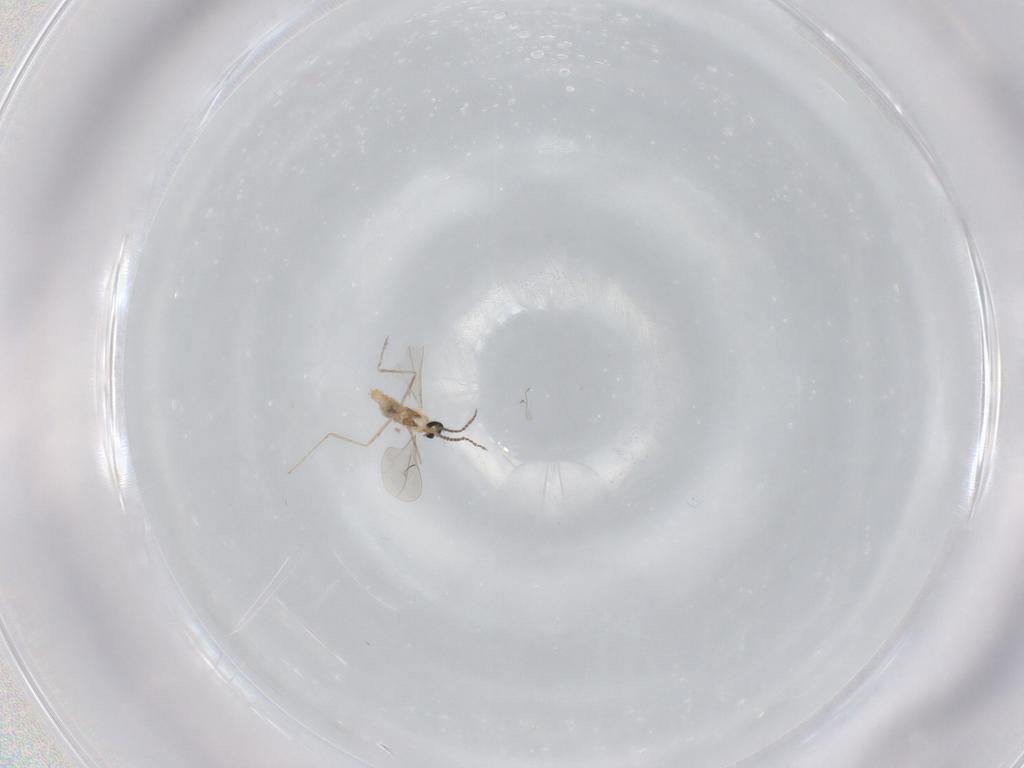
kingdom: Animalia
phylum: Arthropoda
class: Insecta
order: Diptera
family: Cecidomyiidae
